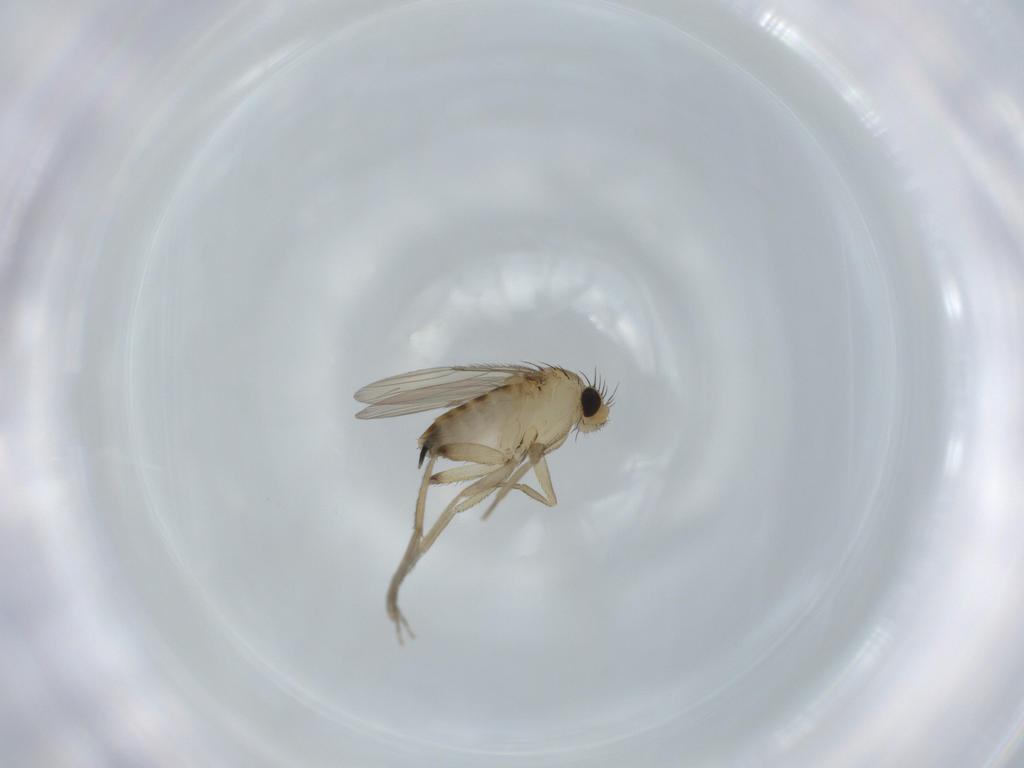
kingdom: Animalia
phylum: Arthropoda
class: Insecta
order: Diptera
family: Phoridae
